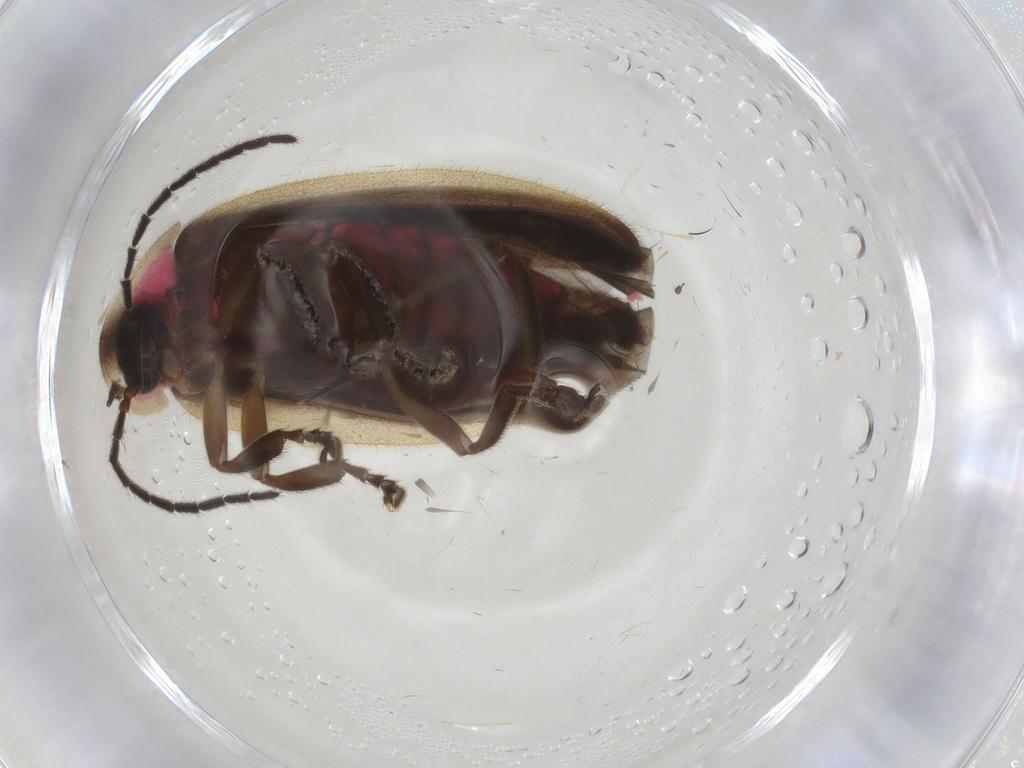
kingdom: Animalia
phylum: Arthropoda
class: Insecta
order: Coleoptera
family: Lampyridae
